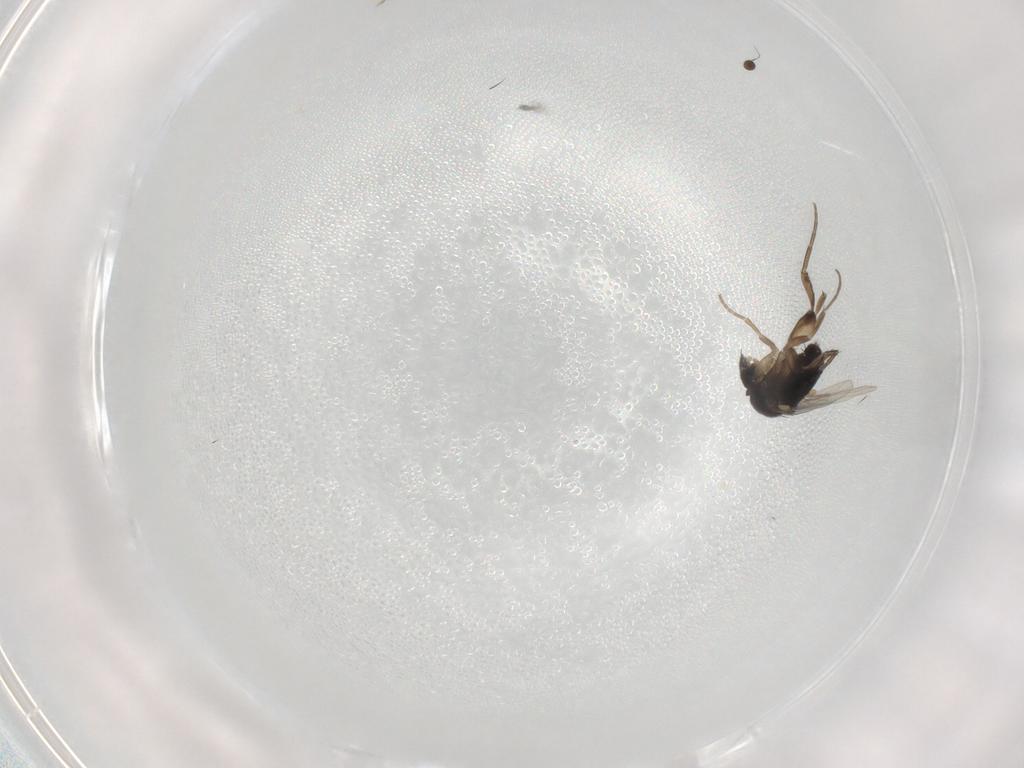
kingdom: Animalia
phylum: Arthropoda
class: Insecta
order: Diptera
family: Phoridae
